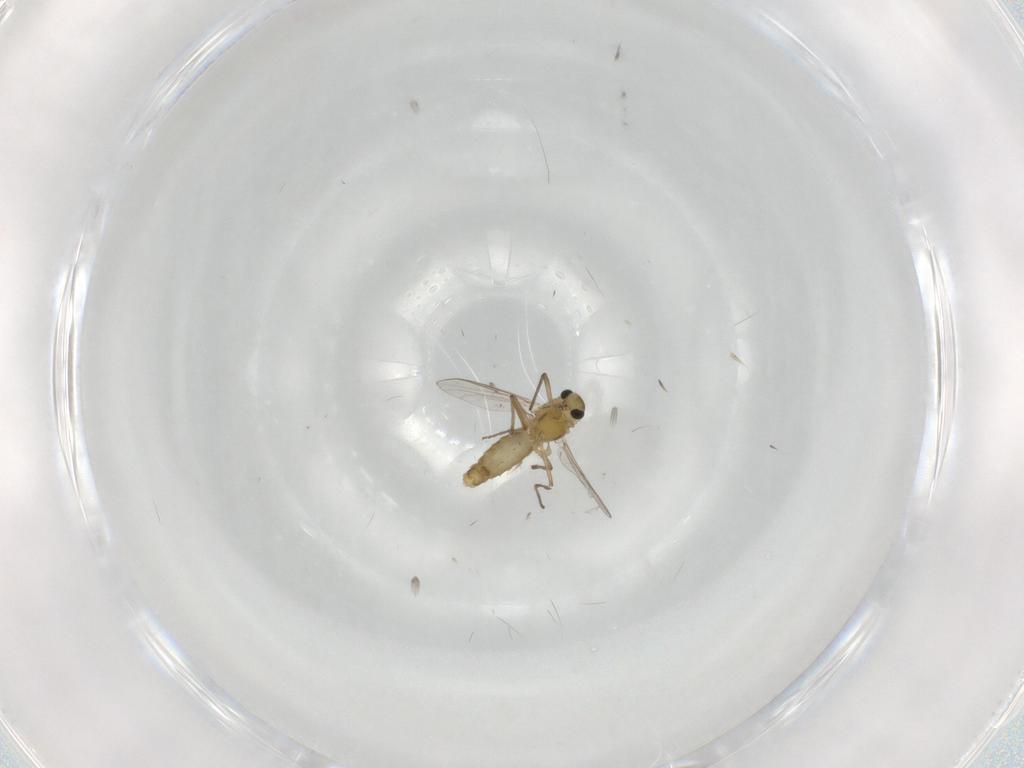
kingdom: Animalia
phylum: Arthropoda
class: Insecta
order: Diptera
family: Chironomidae
